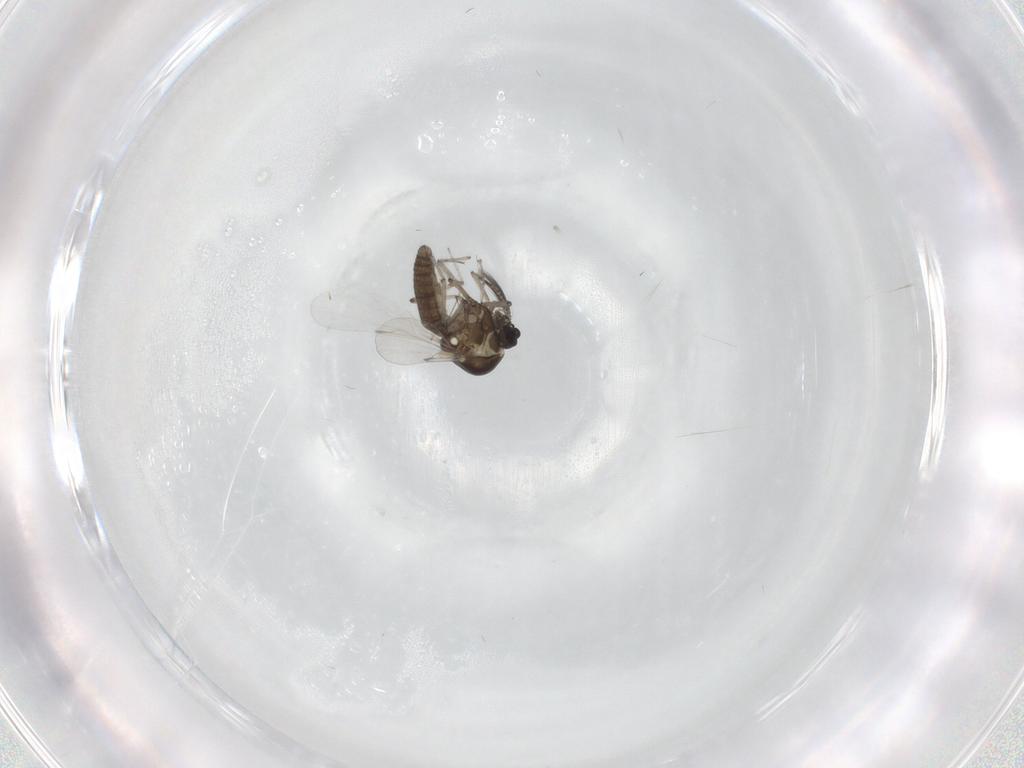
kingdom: Animalia
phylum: Arthropoda
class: Insecta
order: Diptera
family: Ceratopogonidae
